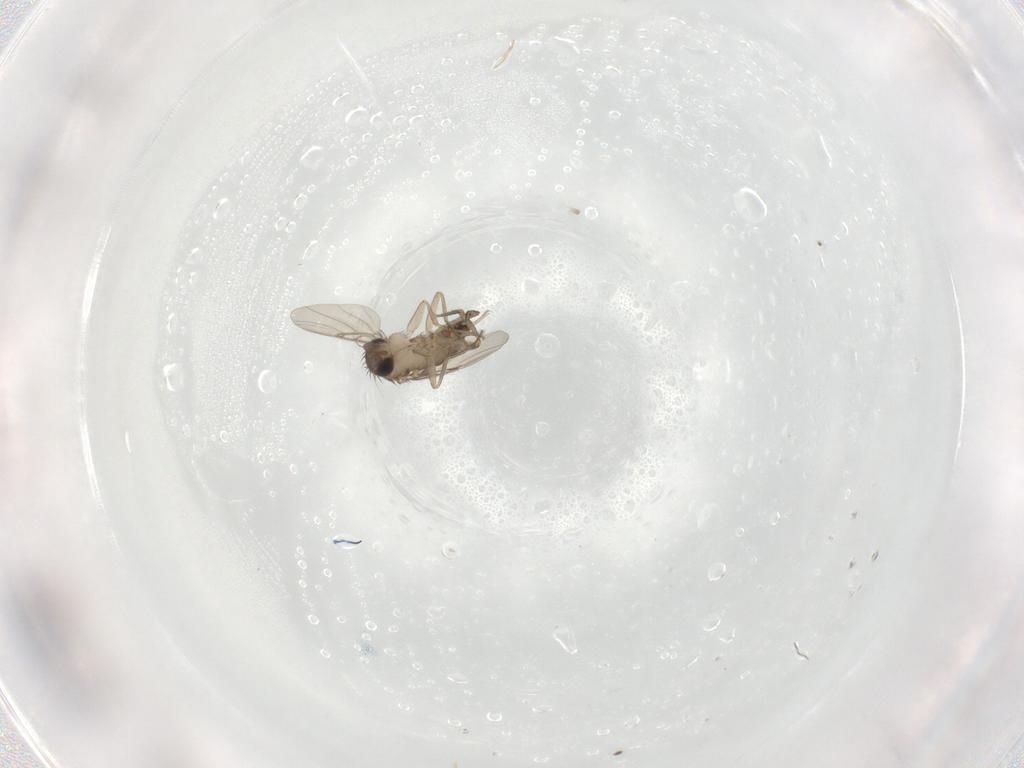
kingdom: Animalia
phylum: Arthropoda
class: Insecta
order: Diptera
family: Phoridae
